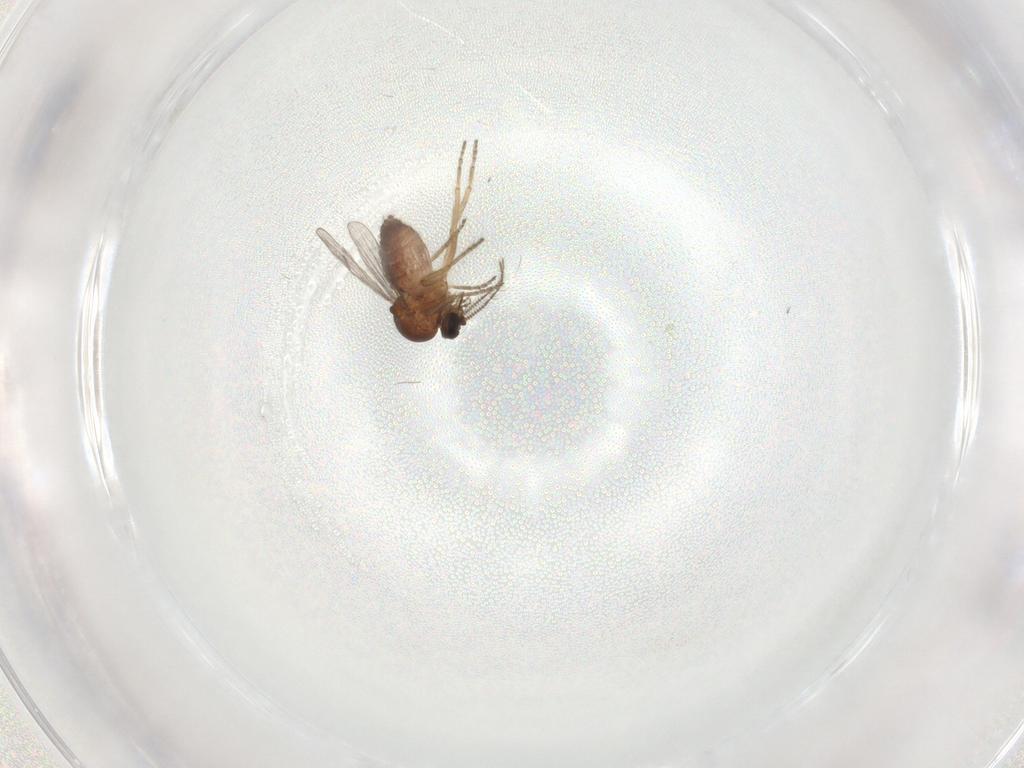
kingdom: Animalia
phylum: Arthropoda
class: Insecta
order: Diptera
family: Ceratopogonidae
